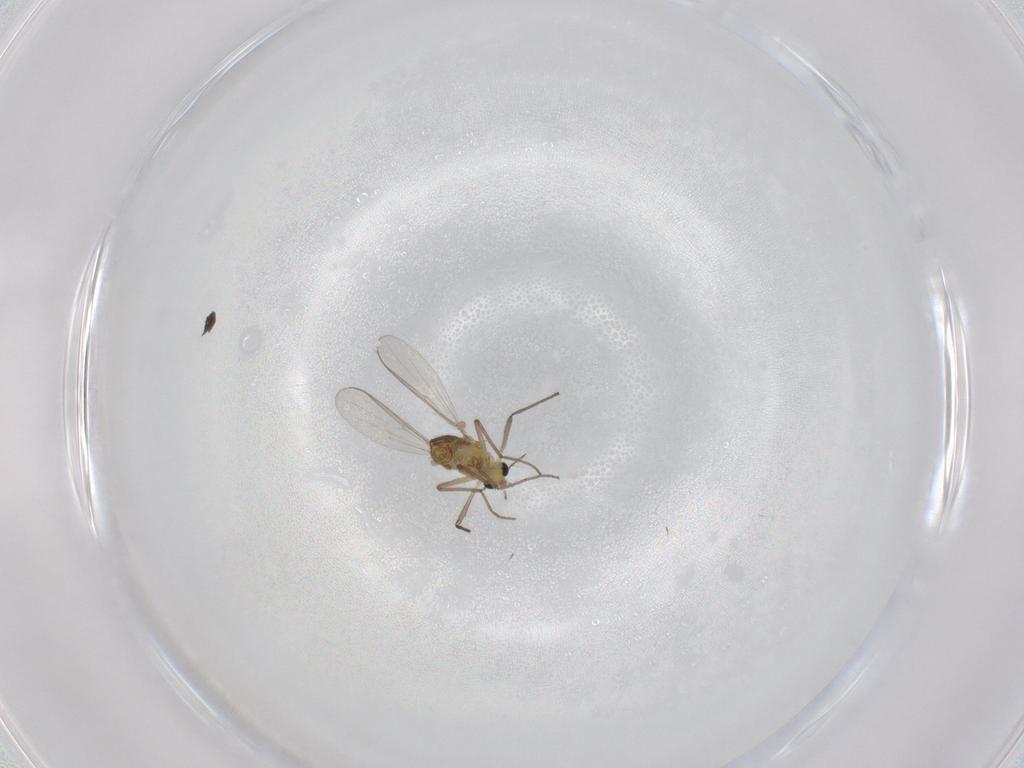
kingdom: Animalia
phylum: Arthropoda
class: Insecta
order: Diptera
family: Chironomidae
